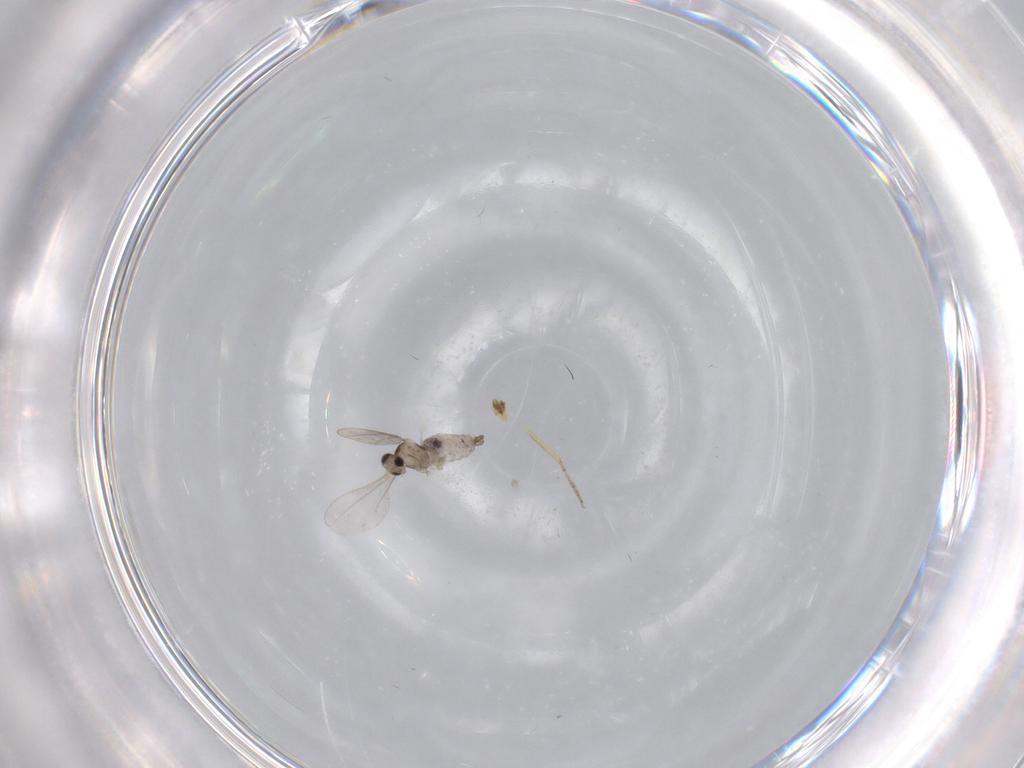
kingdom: Animalia
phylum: Arthropoda
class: Insecta
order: Diptera
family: Cecidomyiidae
